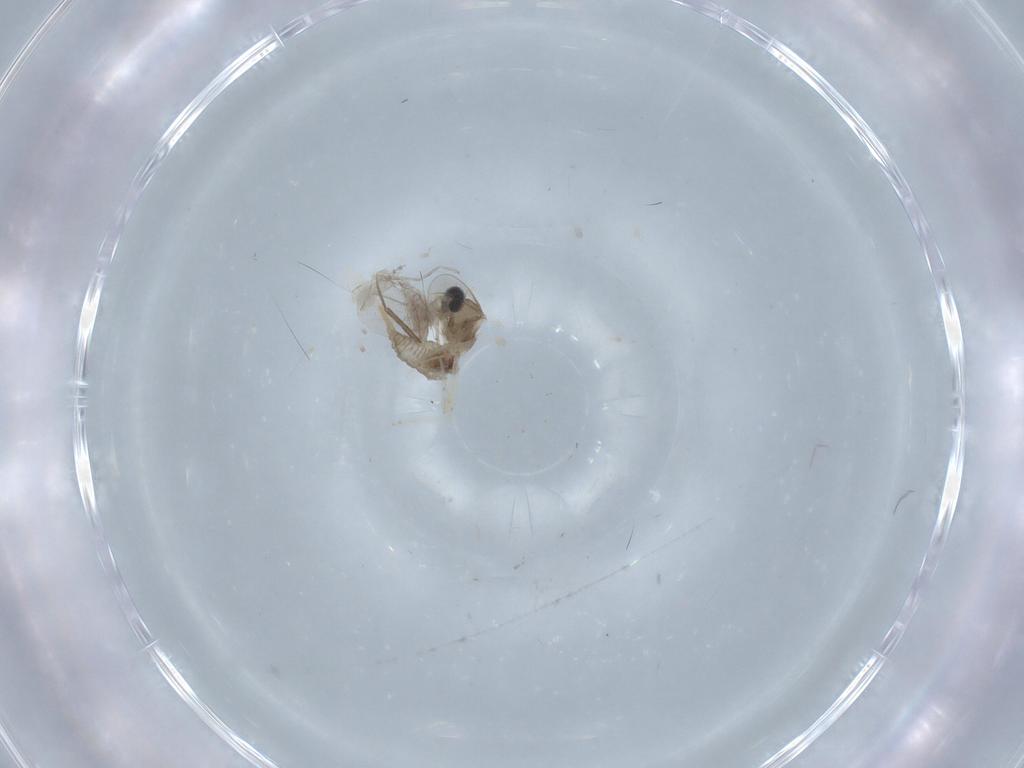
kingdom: Animalia
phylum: Arthropoda
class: Insecta
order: Diptera
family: Cecidomyiidae
